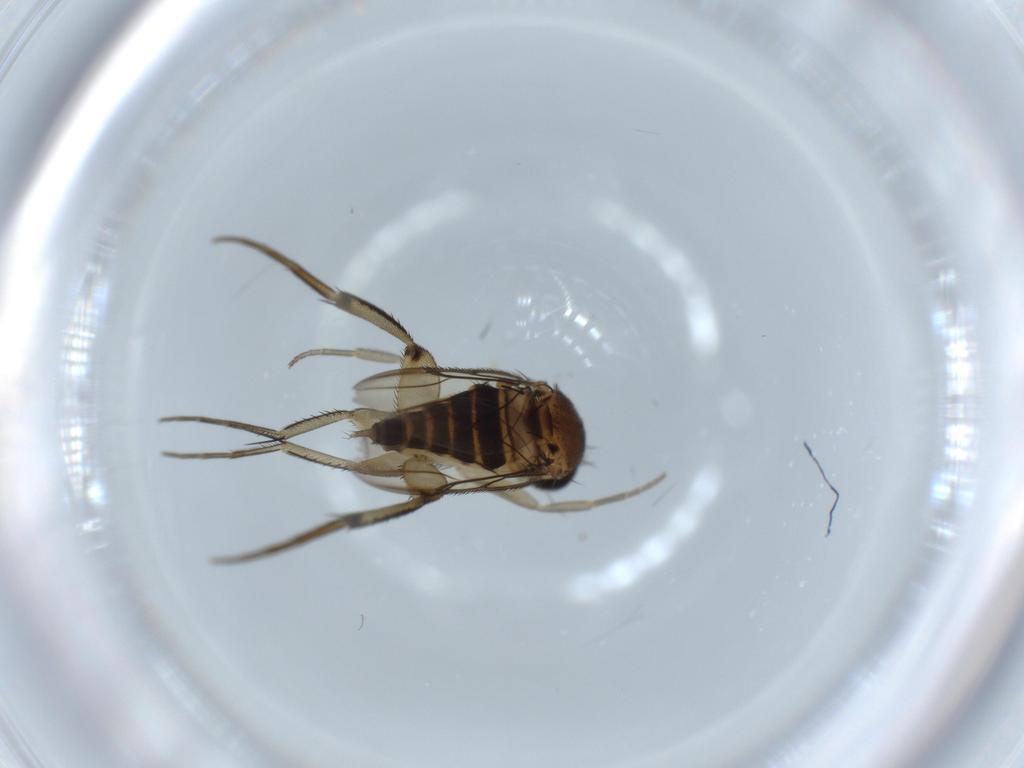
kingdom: Animalia
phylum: Arthropoda
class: Insecta
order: Diptera
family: Phoridae
